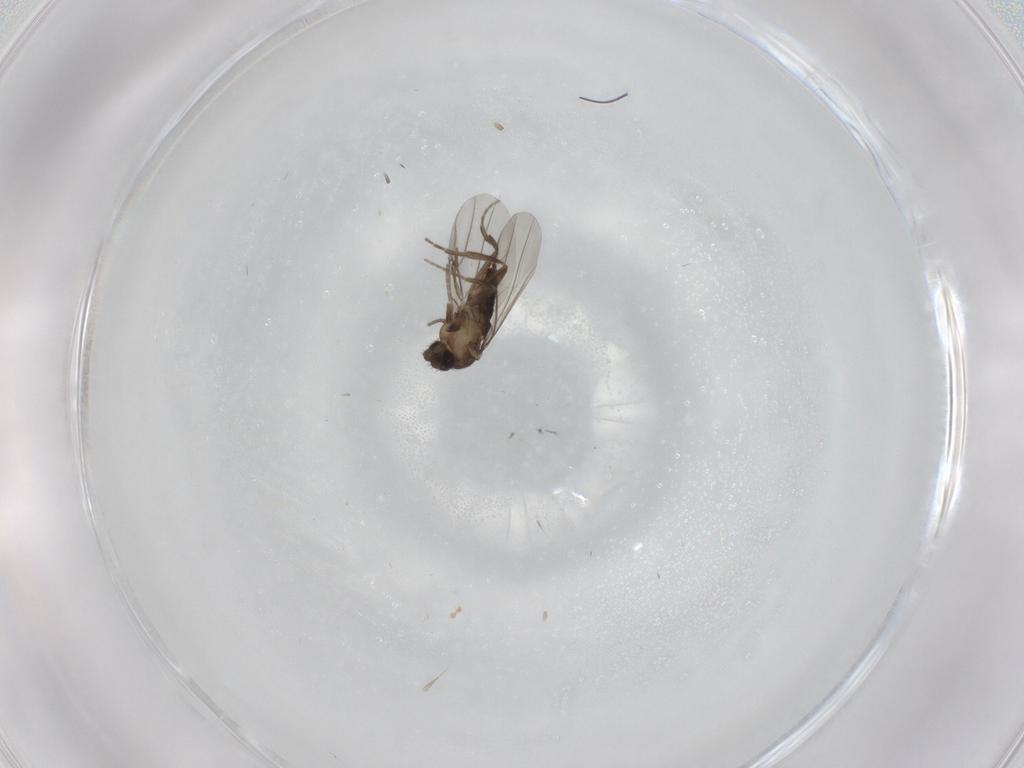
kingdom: Animalia
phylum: Arthropoda
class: Insecta
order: Diptera
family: Phoridae
